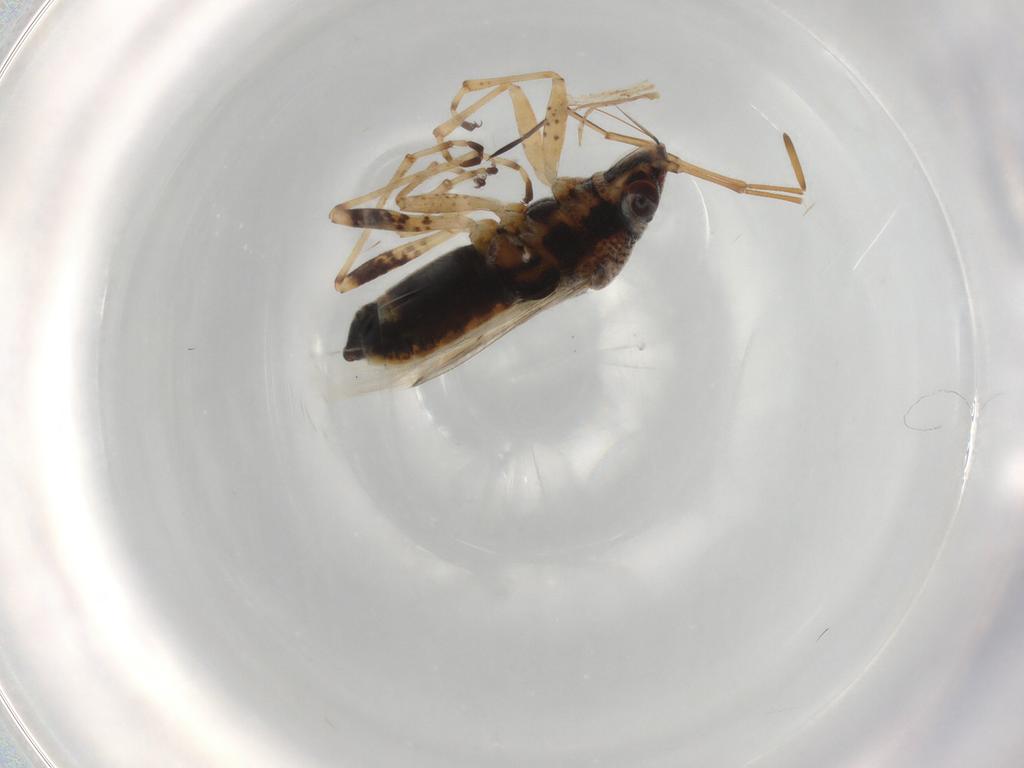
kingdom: Animalia
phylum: Arthropoda
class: Insecta
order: Hemiptera
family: Lygaeidae
